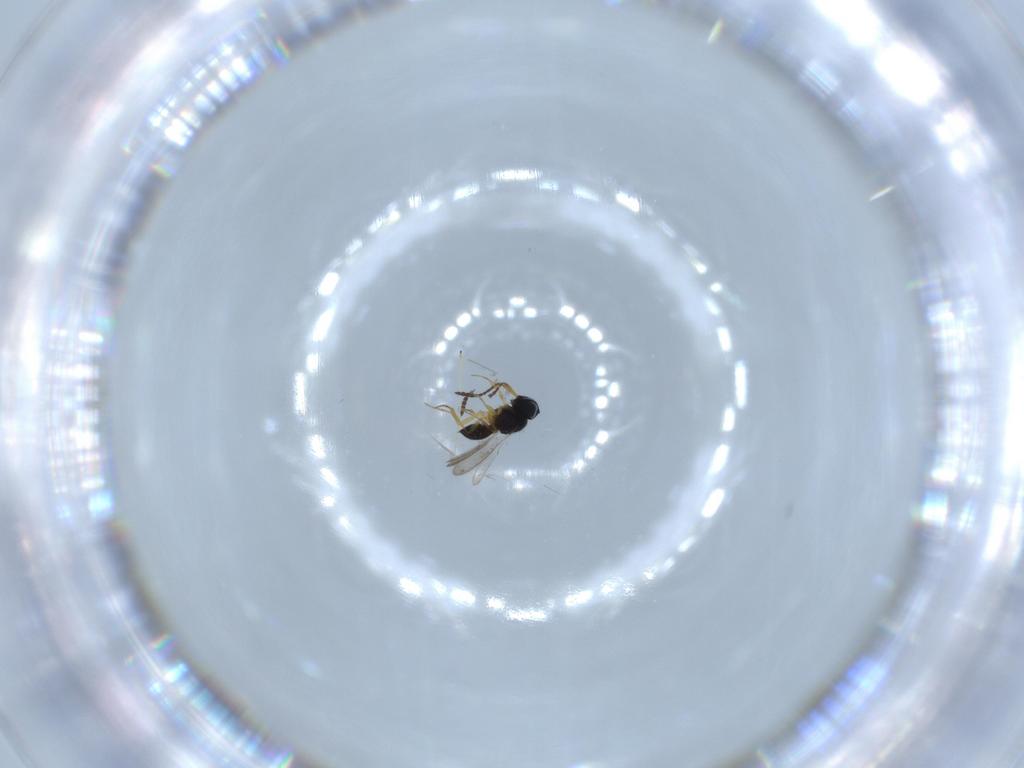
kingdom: Animalia
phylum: Arthropoda
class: Insecta
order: Hymenoptera
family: Scelionidae
